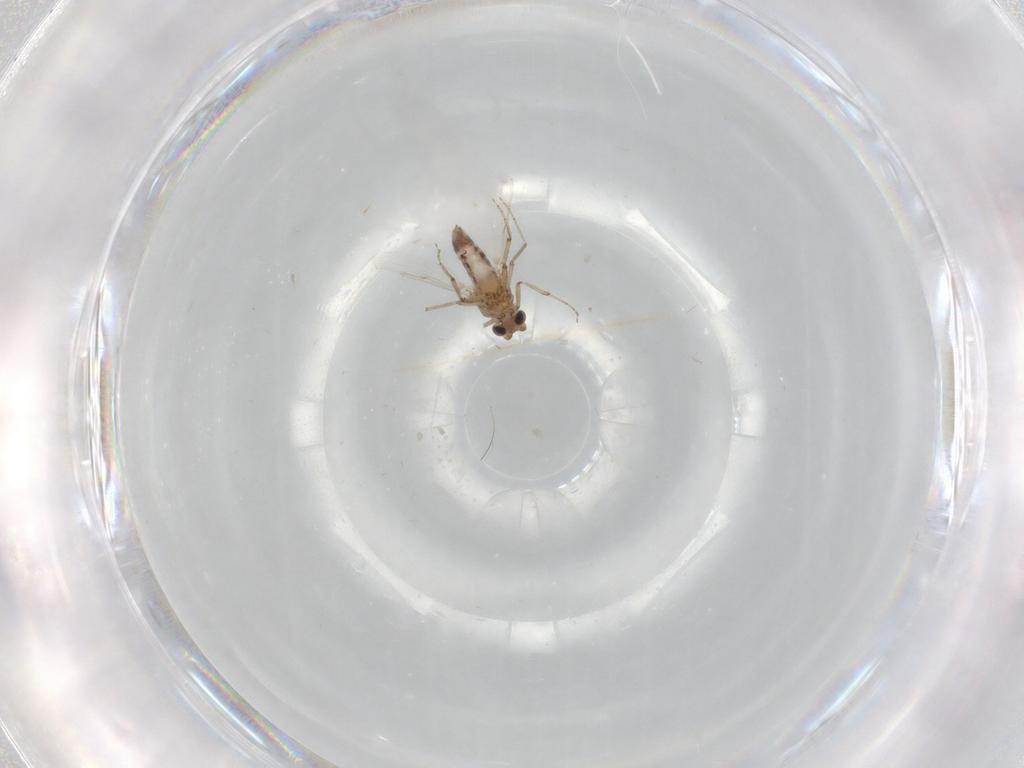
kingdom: Animalia
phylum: Arthropoda
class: Insecta
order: Diptera
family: Ceratopogonidae
